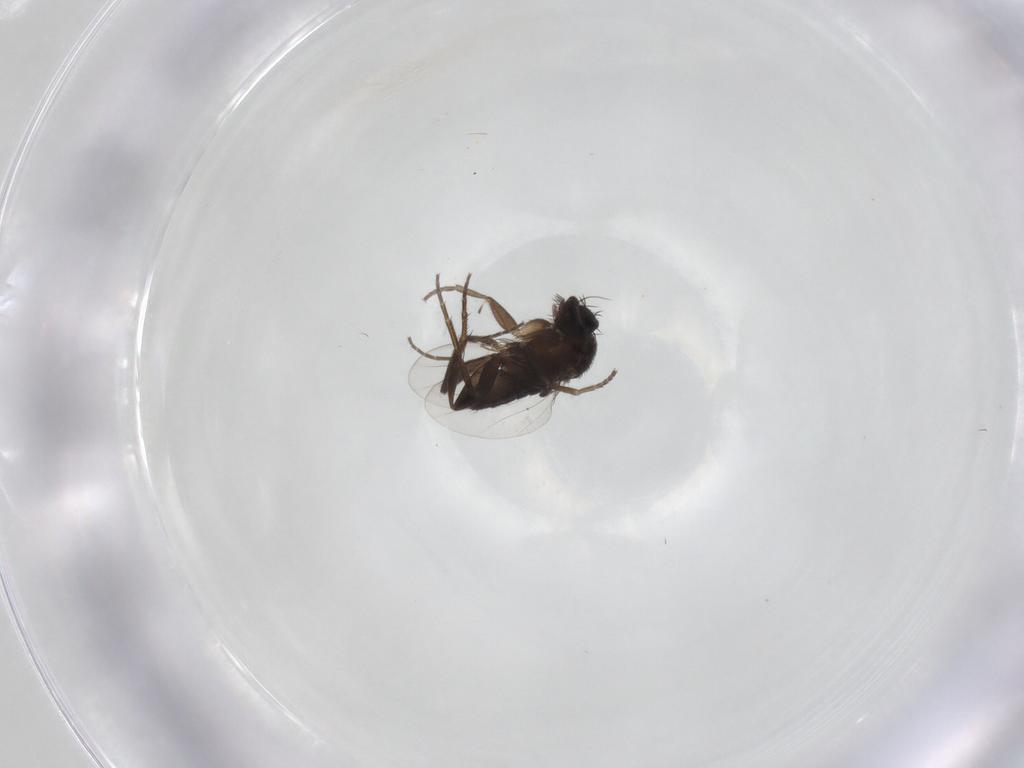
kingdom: Animalia
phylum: Arthropoda
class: Insecta
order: Diptera
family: Phoridae
